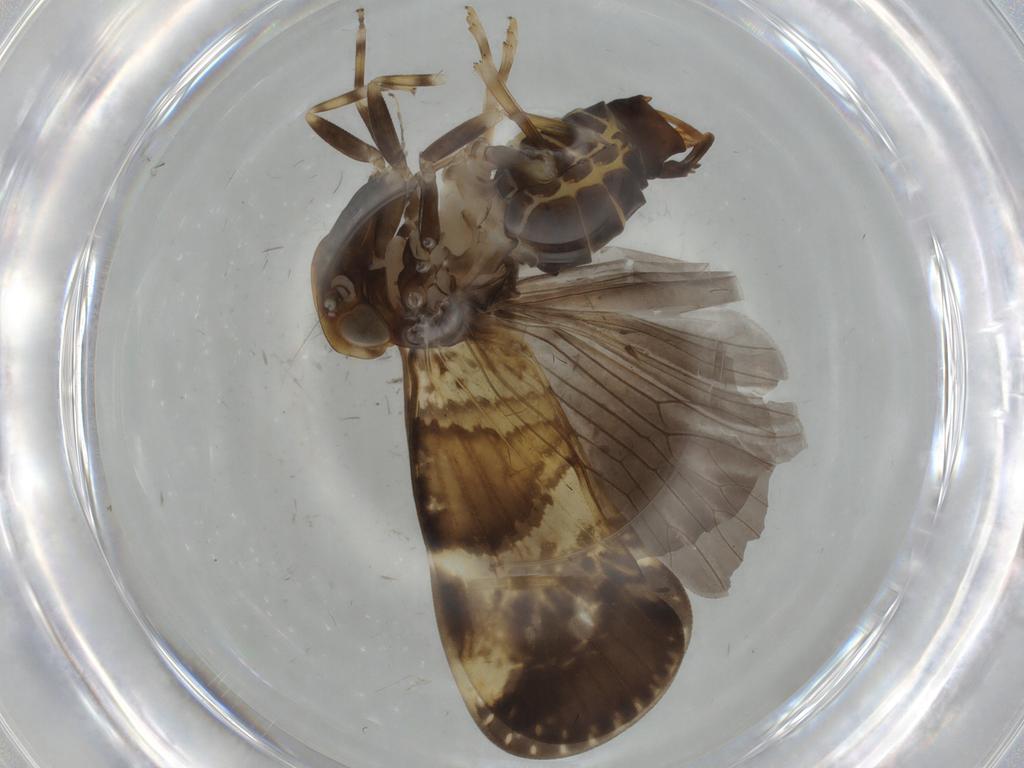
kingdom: Animalia
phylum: Arthropoda
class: Insecta
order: Hemiptera
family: Cixiidae
